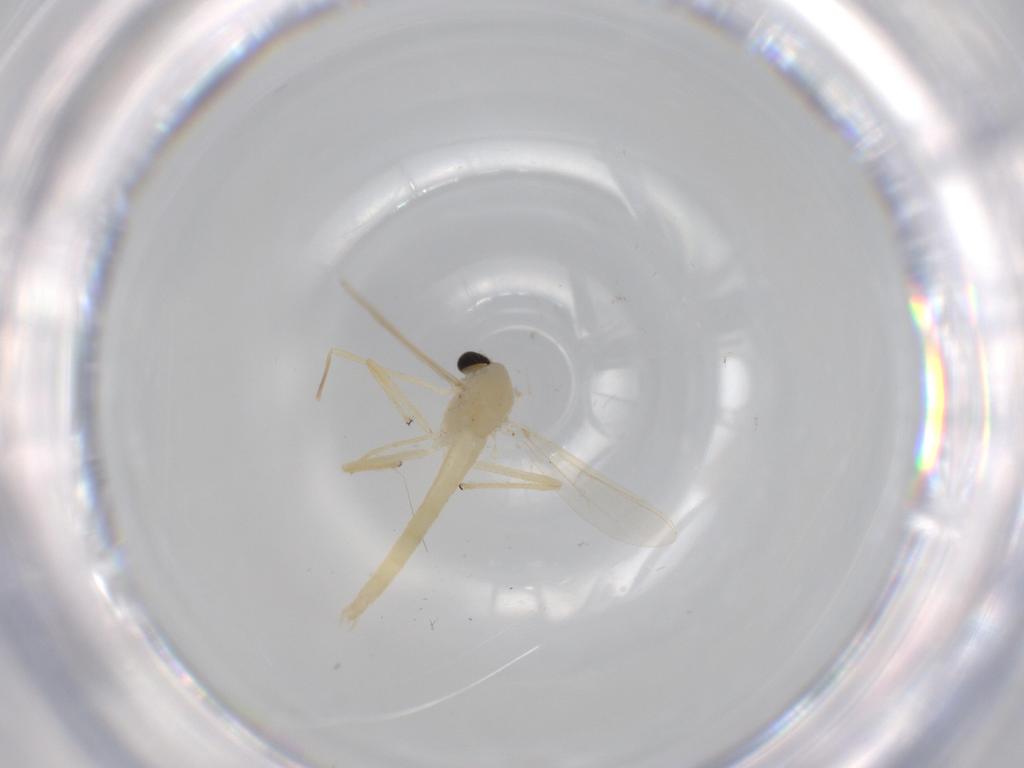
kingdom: Animalia
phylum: Arthropoda
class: Insecta
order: Diptera
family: Chironomidae
